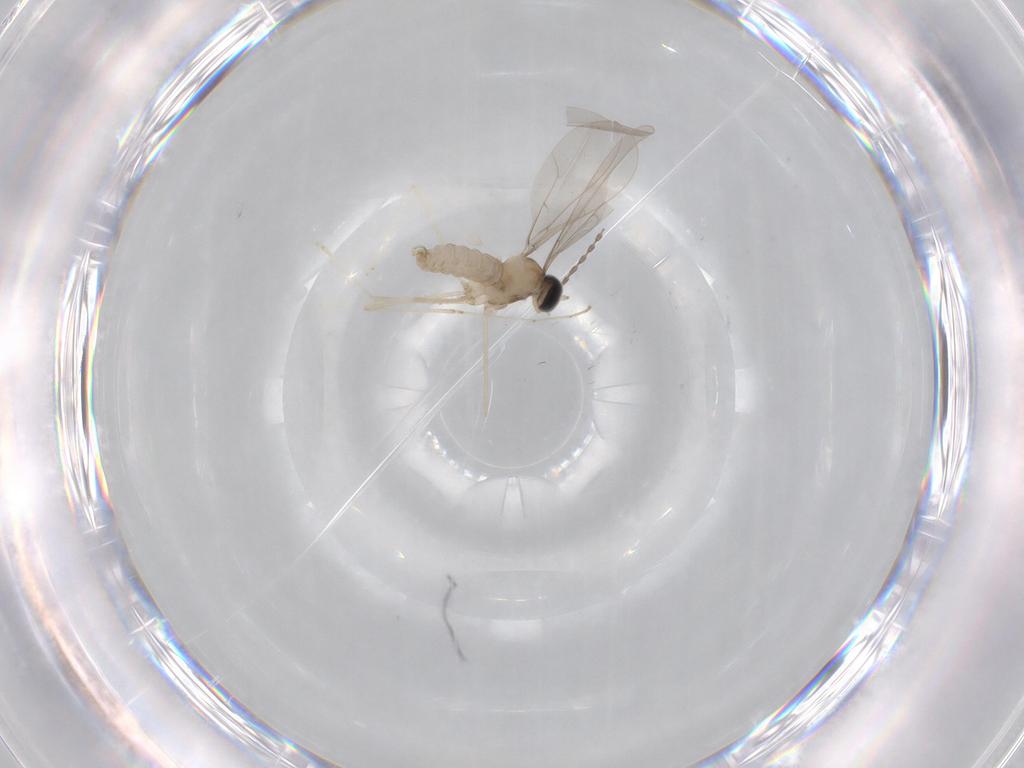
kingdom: Animalia
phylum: Arthropoda
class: Insecta
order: Diptera
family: Cecidomyiidae
